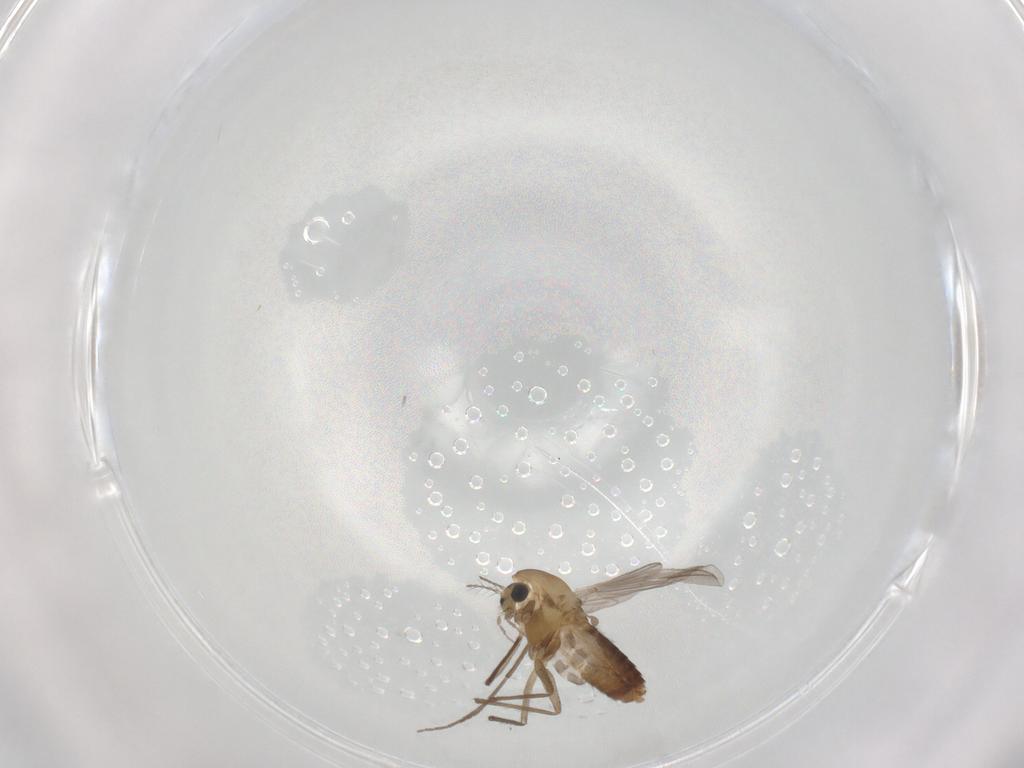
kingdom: Animalia
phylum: Arthropoda
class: Insecta
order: Diptera
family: Chironomidae
